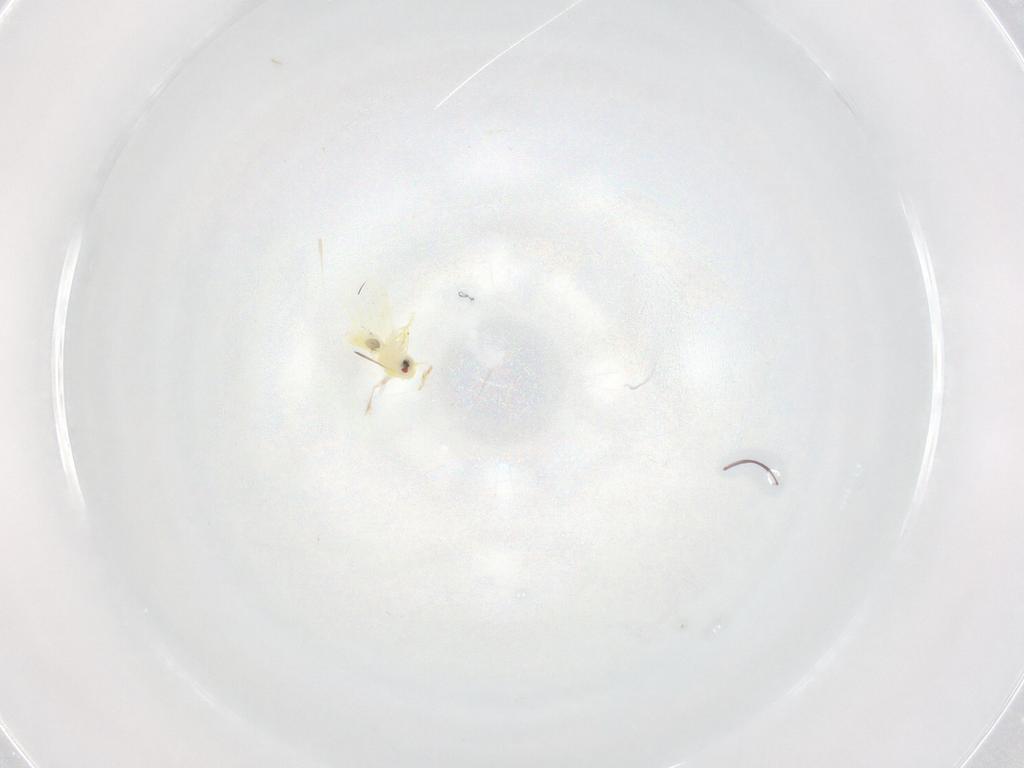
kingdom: Animalia
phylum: Arthropoda
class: Insecta
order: Hemiptera
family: Aleyrodidae
